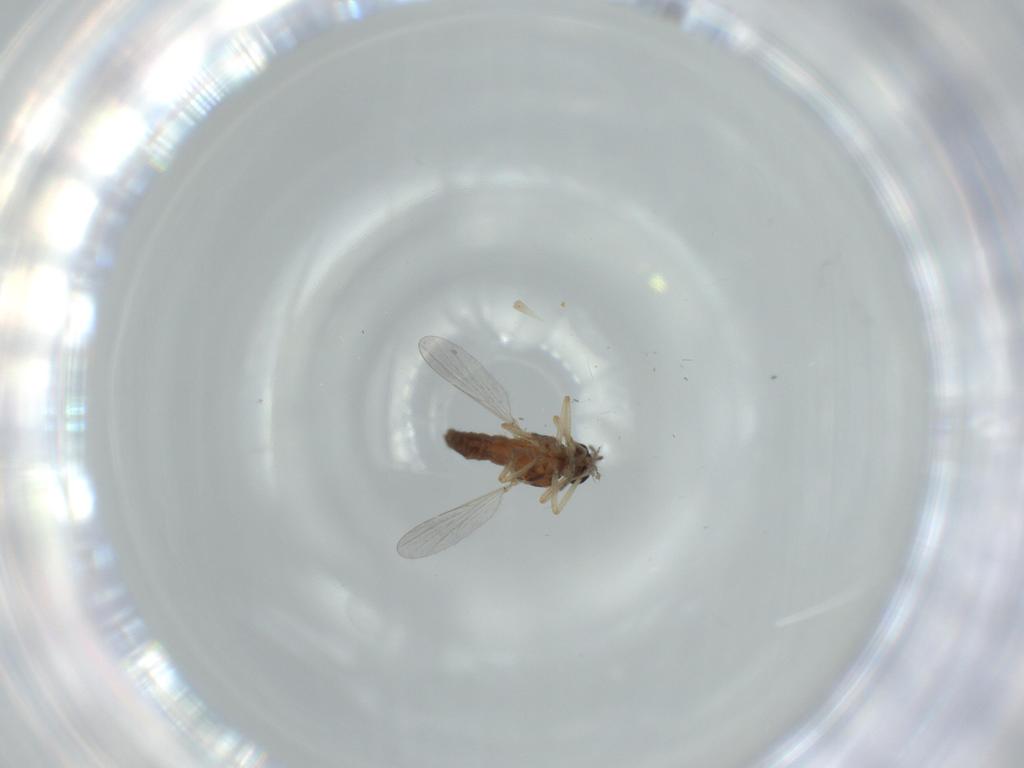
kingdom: Animalia
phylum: Arthropoda
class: Insecta
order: Diptera
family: Ceratopogonidae
